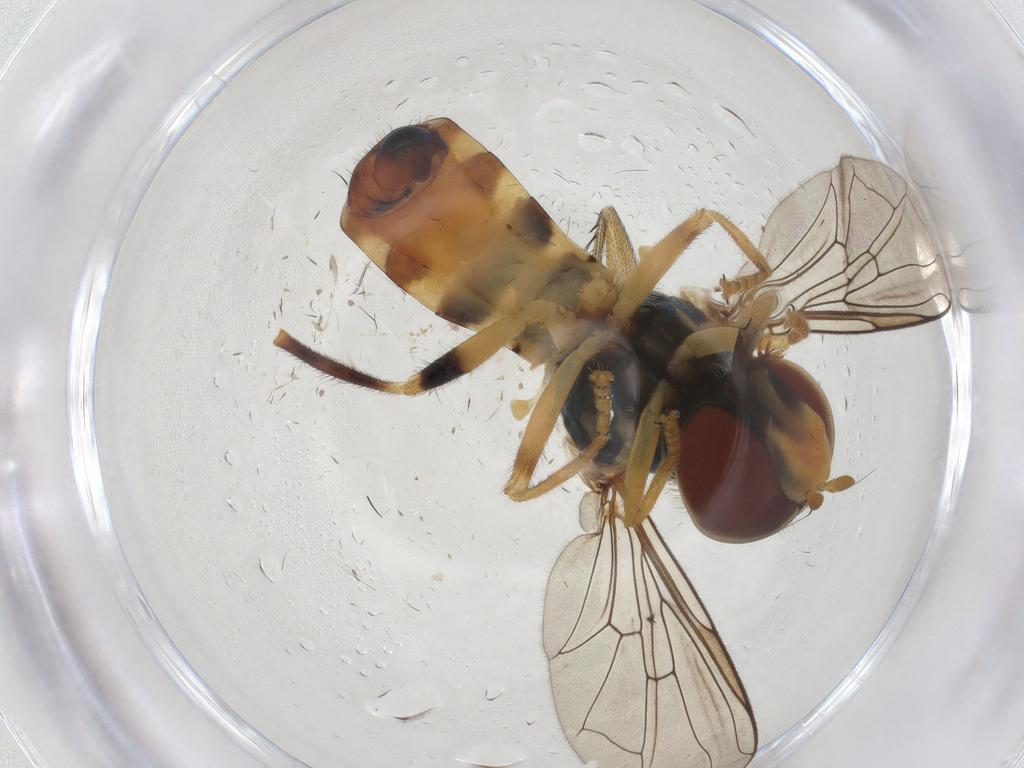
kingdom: Animalia
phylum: Arthropoda
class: Insecta
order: Diptera
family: Syrphidae
